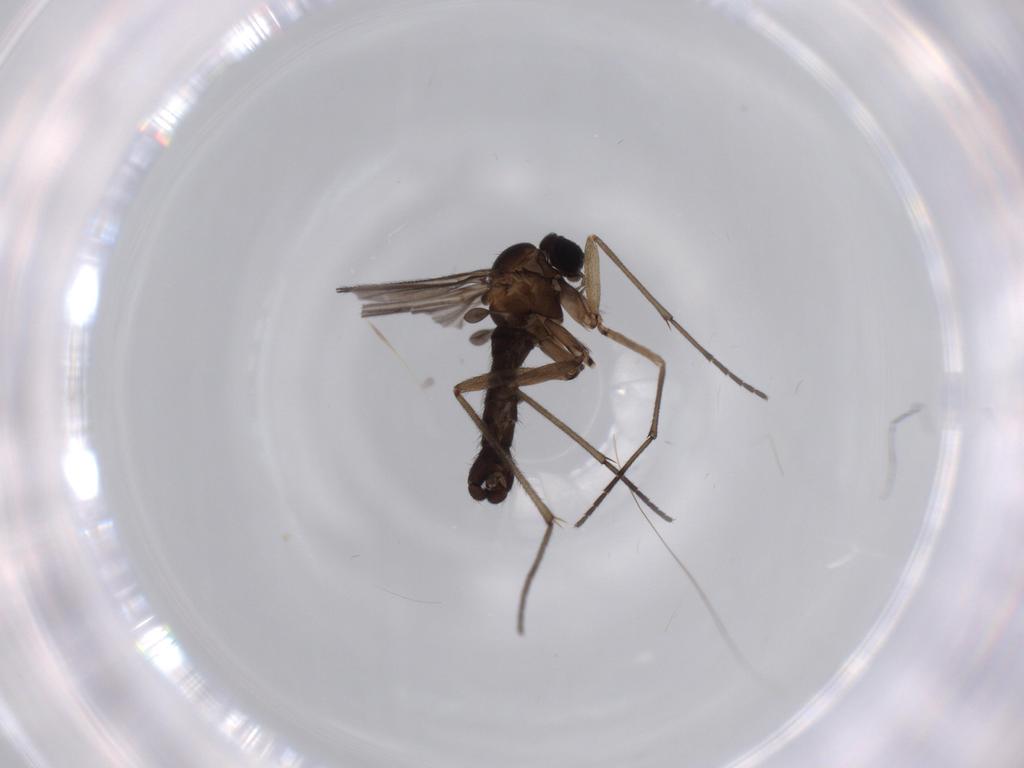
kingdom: Animalia
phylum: Arthropoda
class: Insecta
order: Diptera
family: Sciaridae
